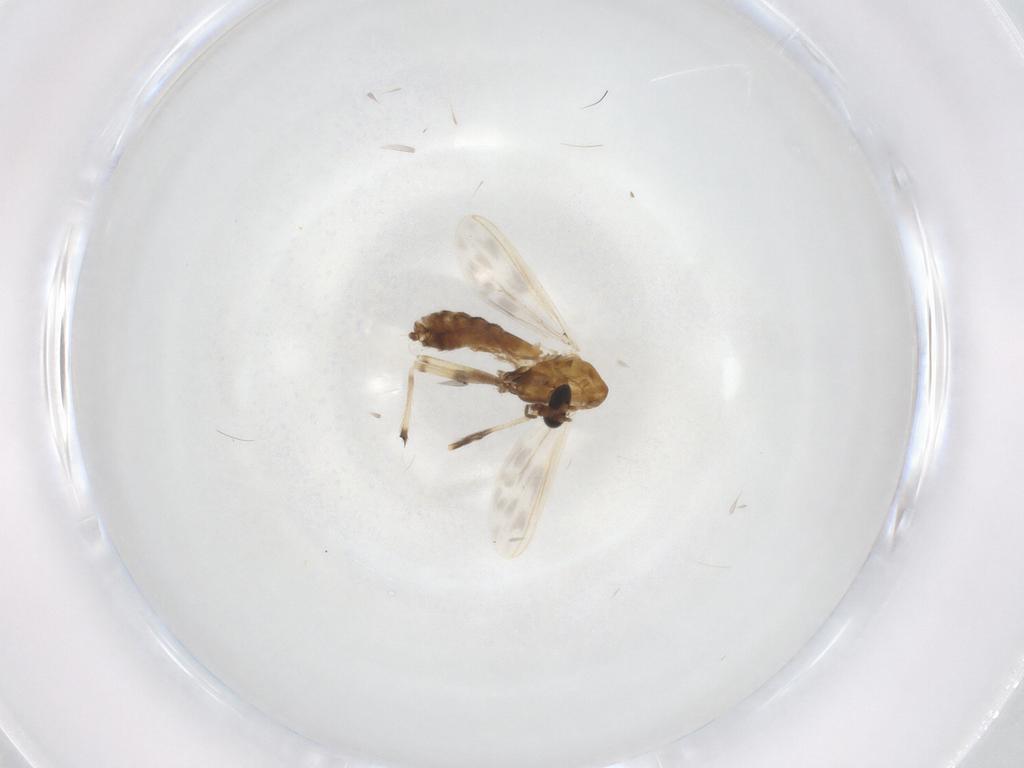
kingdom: Animalia
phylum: Arthropoda
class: Insecta
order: Diptera
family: Chironomidae
